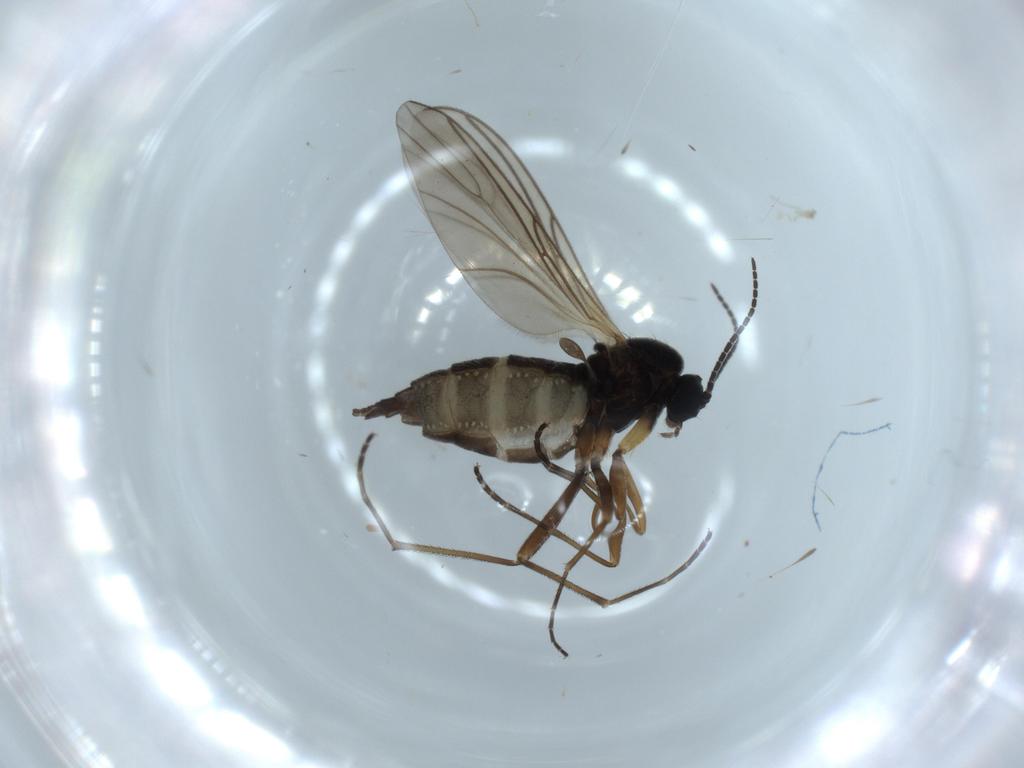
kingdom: Animalia
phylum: Arthropoda
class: Insecta
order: Diptera
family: Sciaridae
